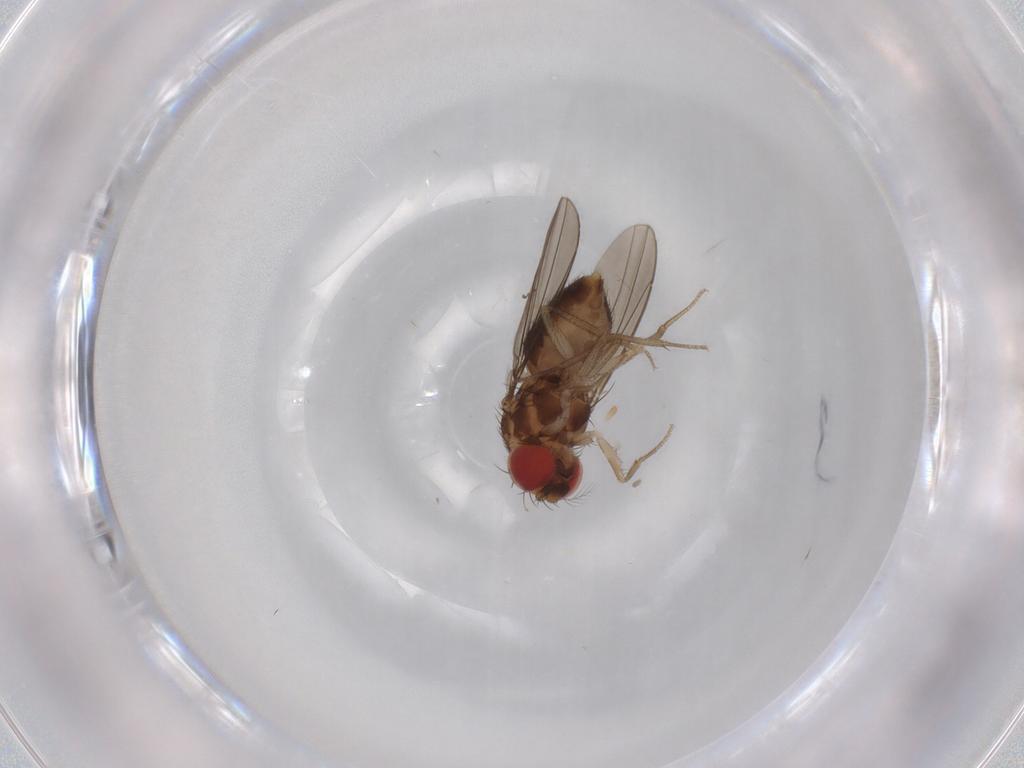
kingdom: Animalia
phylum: Arthropoda
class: Insecta
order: Diptera
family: Drosophilidae
